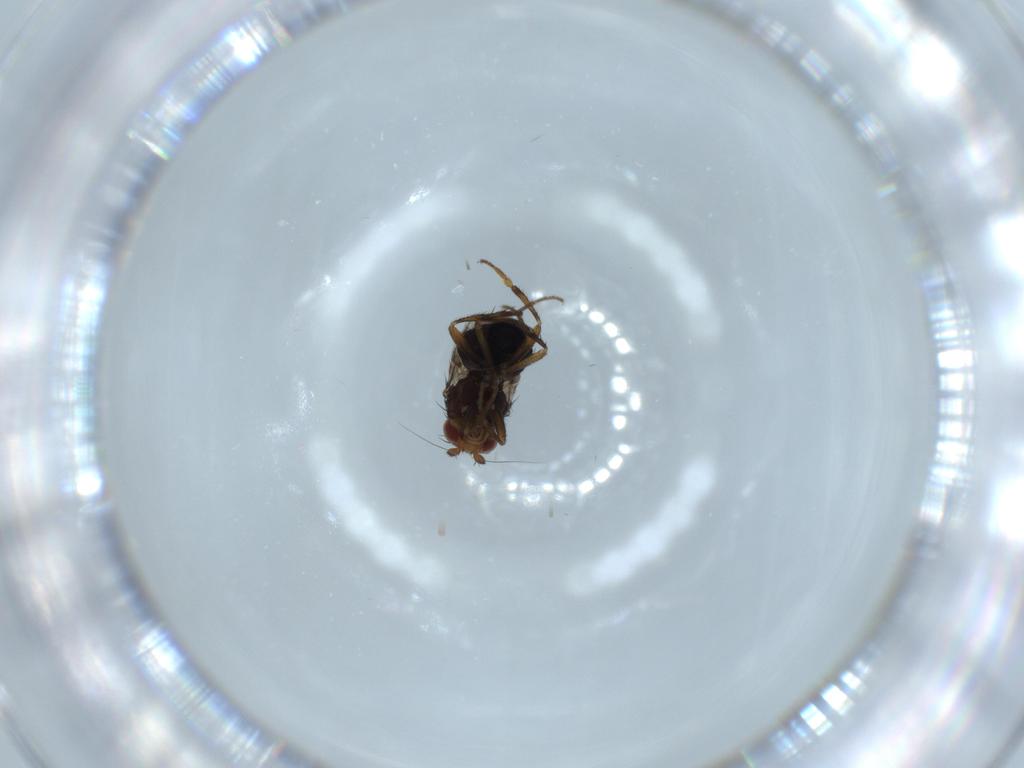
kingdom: Animalia
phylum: Arthropoda
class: Insecta
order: Diptera
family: Sphaeroceridae
